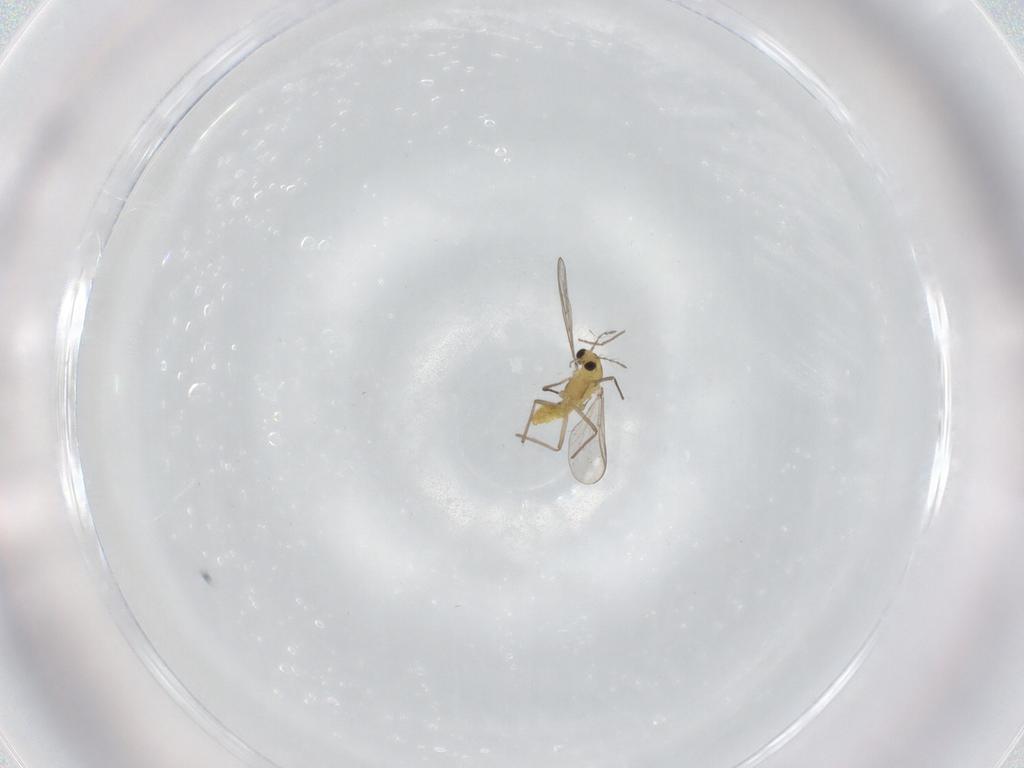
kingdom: Animalia
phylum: Arthropoda
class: Insecta
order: Diptera
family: Chironomidae
